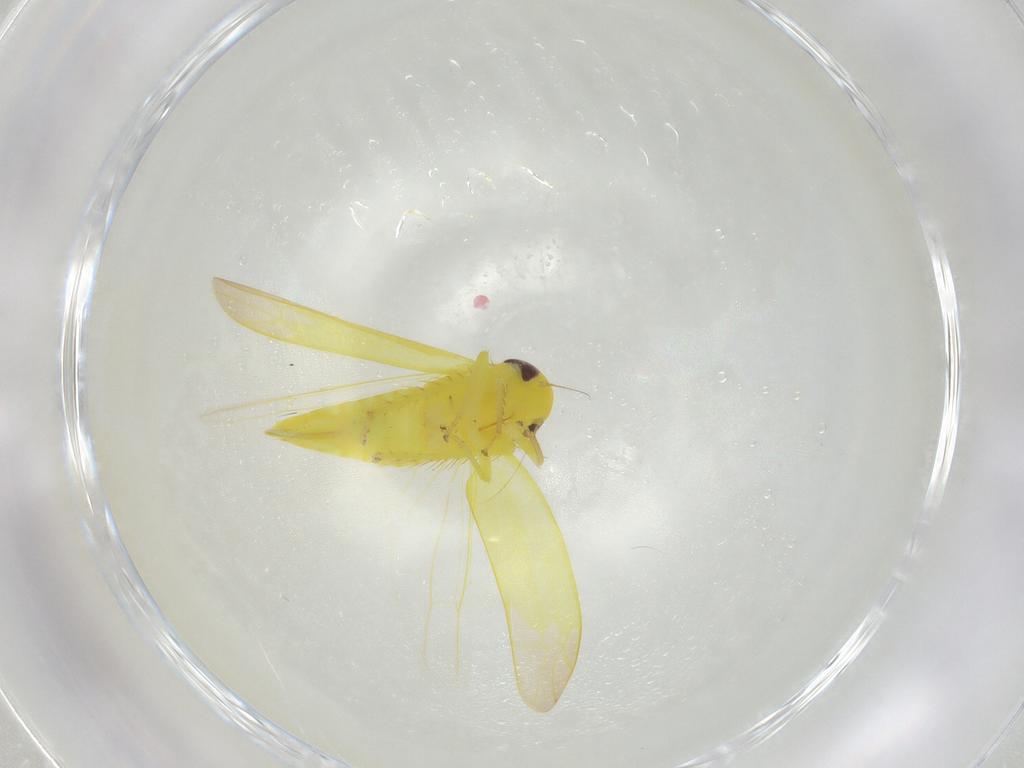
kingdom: Animalia
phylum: Arthropoda
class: Insecta
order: Hemiptera
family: Cicadellidae
